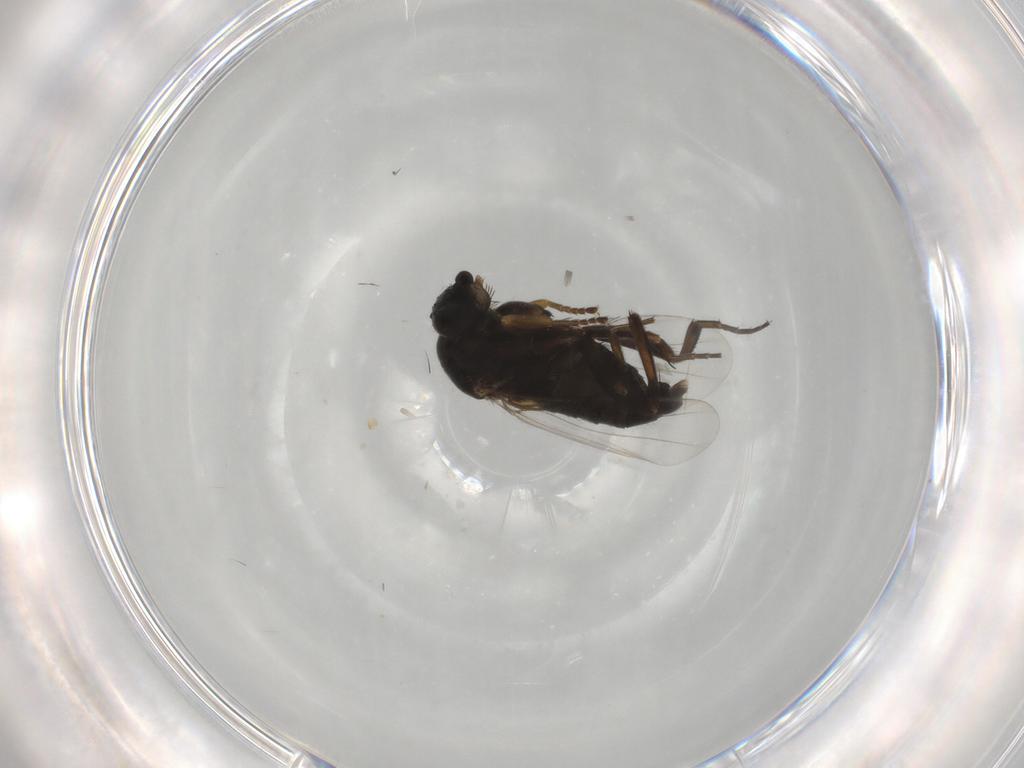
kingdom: Animalia
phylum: Arthropoda
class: Insecta
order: Diptera
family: Phoridae
